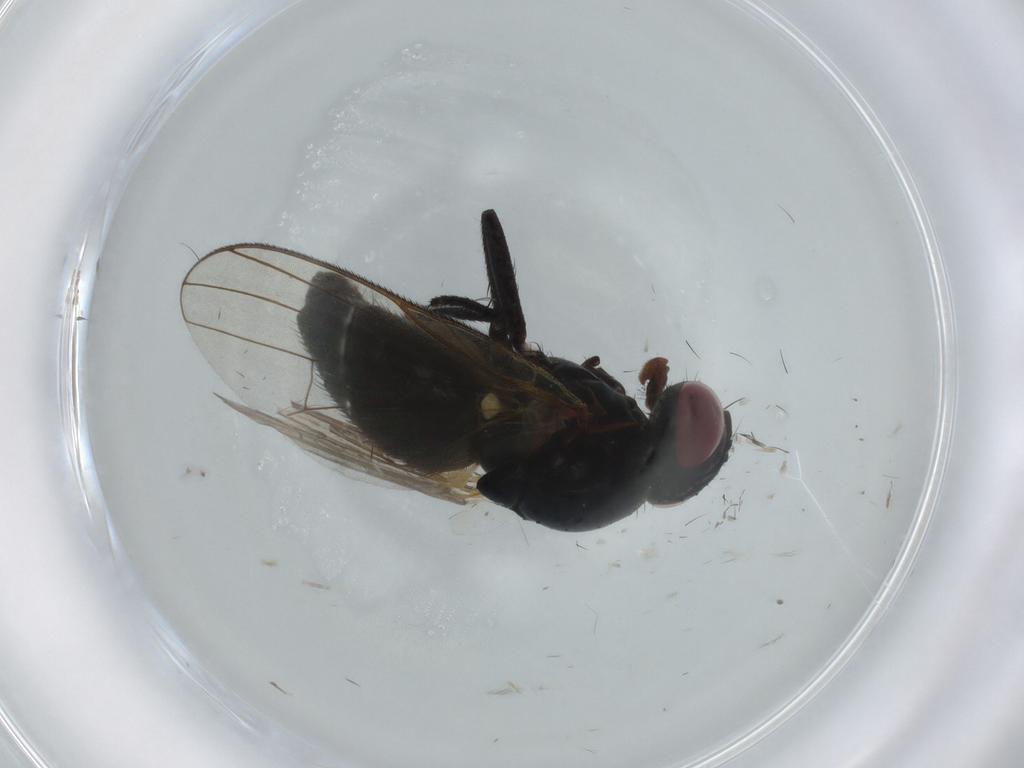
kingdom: Animalia
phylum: Arthropoda
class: Insecta
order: Diptera
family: Fannia
